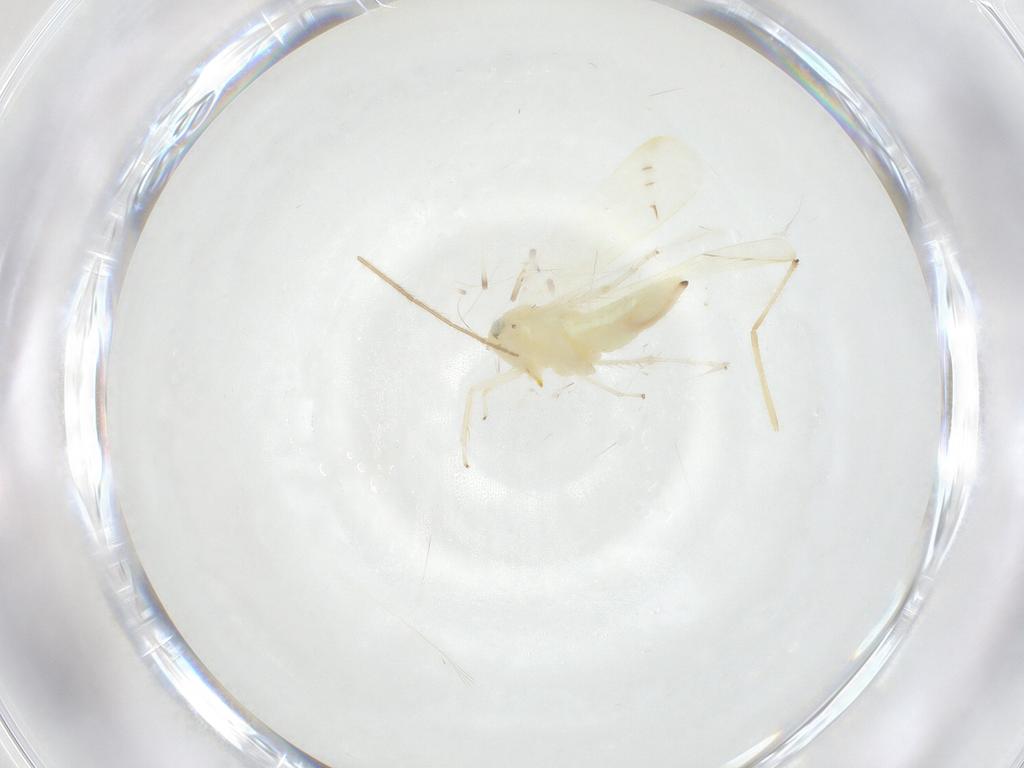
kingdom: Animalia
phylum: Arthropoda
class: Insecta
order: Hemiptera
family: Cicadellidae
